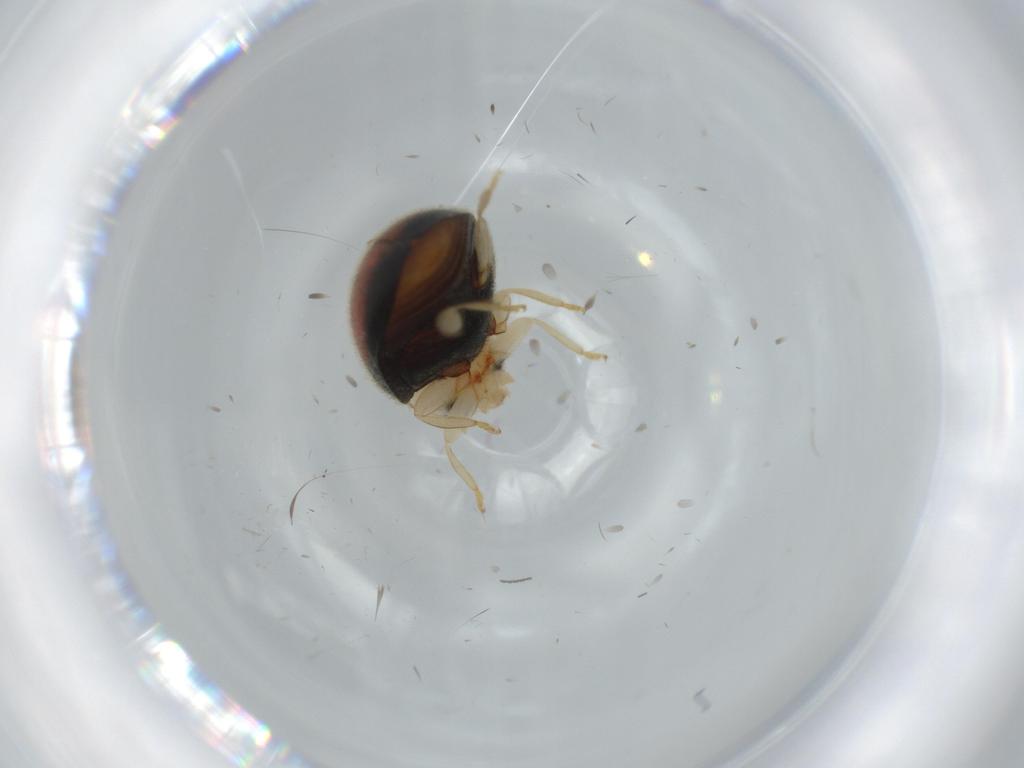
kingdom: Animalia
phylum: Arthropoda
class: Insecta
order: Coleoptera
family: Coccinellidae
